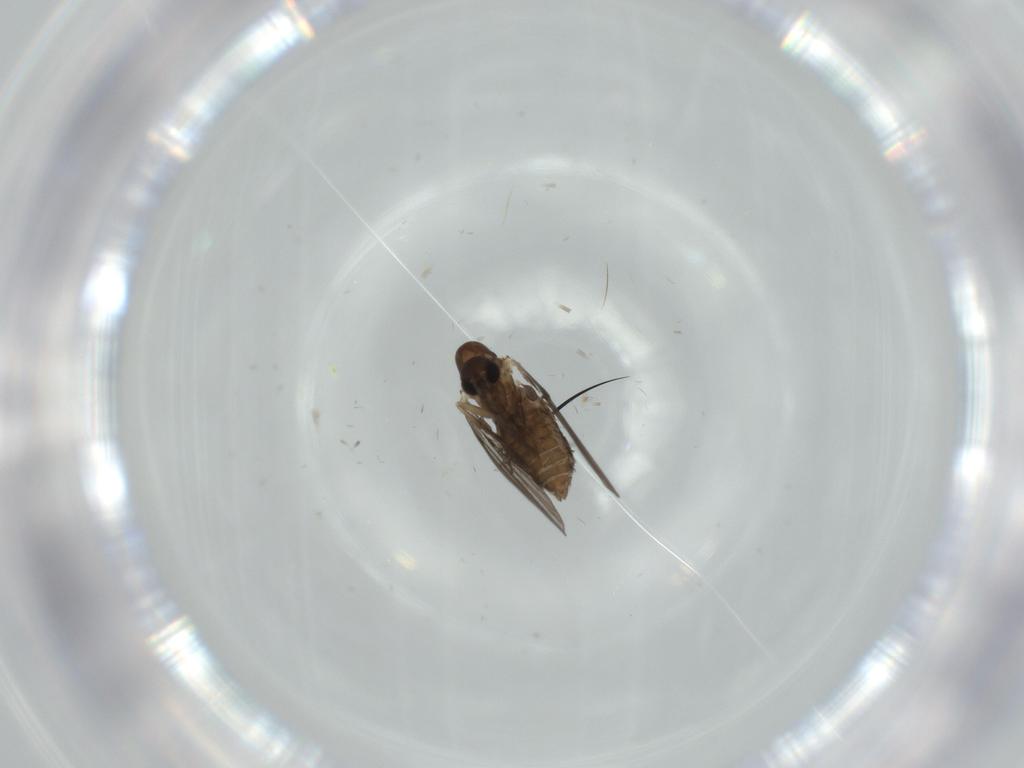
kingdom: Animalia
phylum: Arthropoda
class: Insecta
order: Diptera
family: Psychodidae
